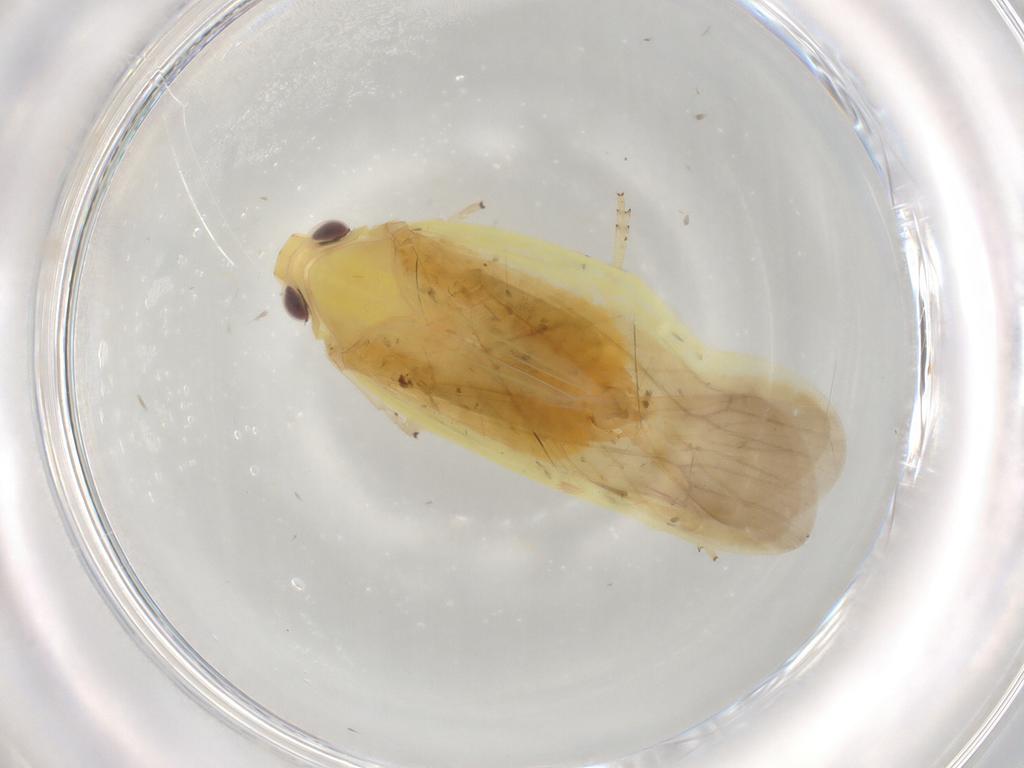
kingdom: Animalia
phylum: Arthropoda
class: Insecta
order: Hemiptera
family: Achilidae
